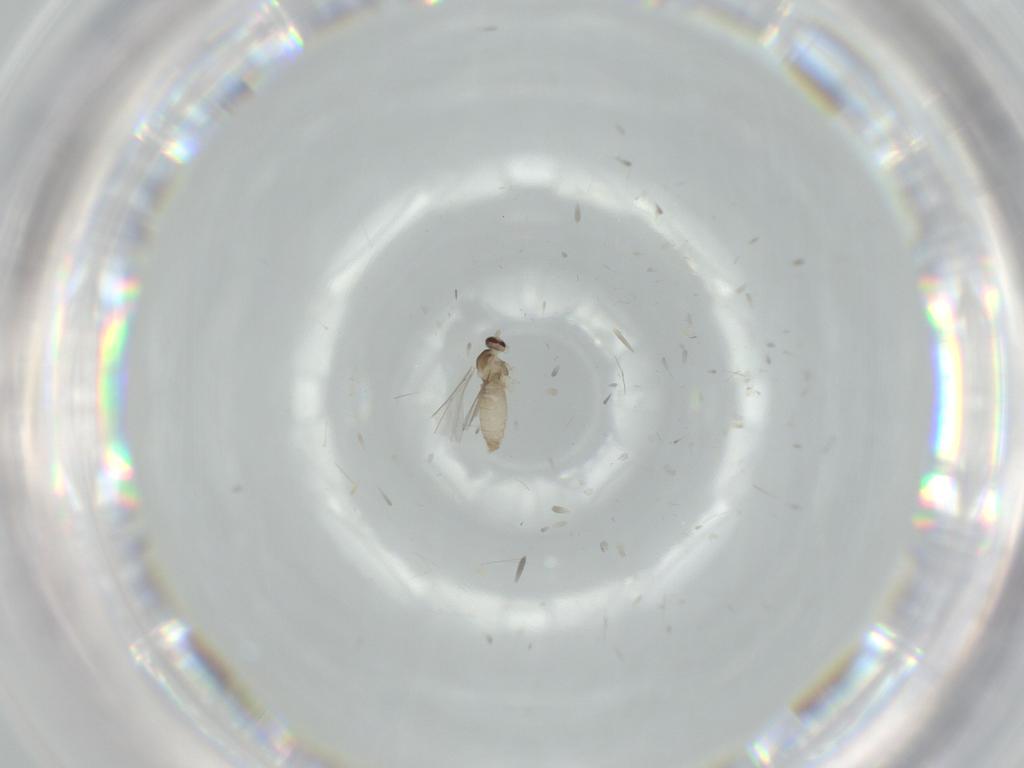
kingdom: Animalia
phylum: Arthropoda
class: Insecta
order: Diptera
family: Cecidomyiidae
